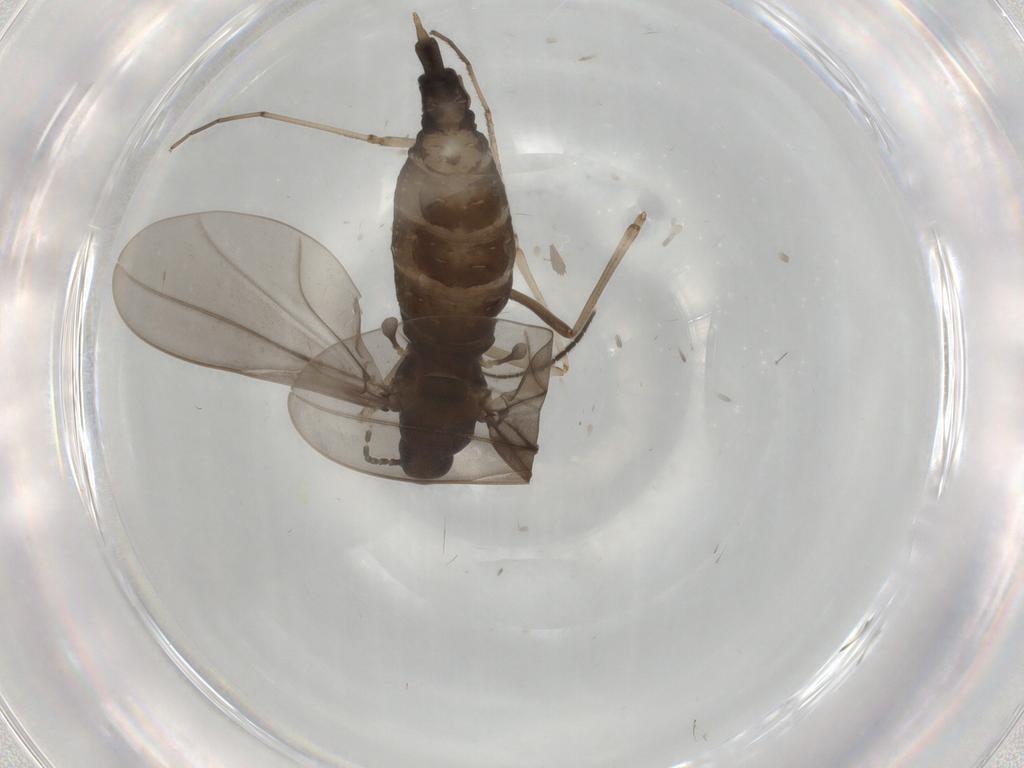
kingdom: Animalia
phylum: Arthropoda
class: Insecta
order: Diptera
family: Cecidomyiidae
